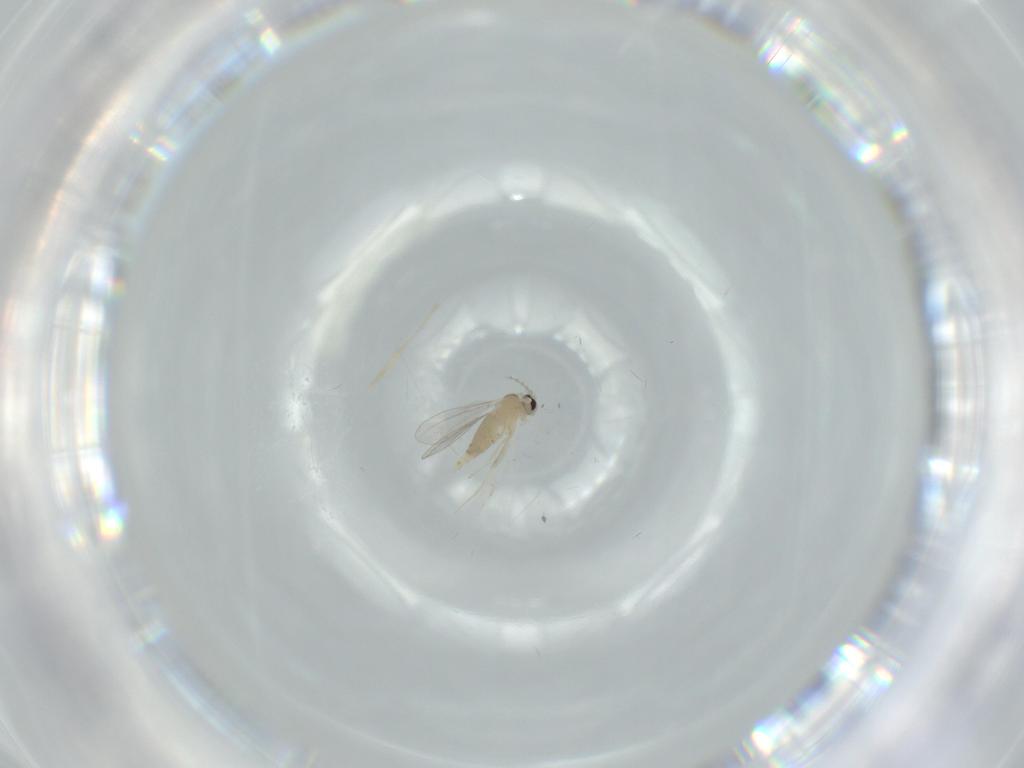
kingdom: Animalia
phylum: Arthropoda
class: Insecta
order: Diptera
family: Cecidomyiidae
